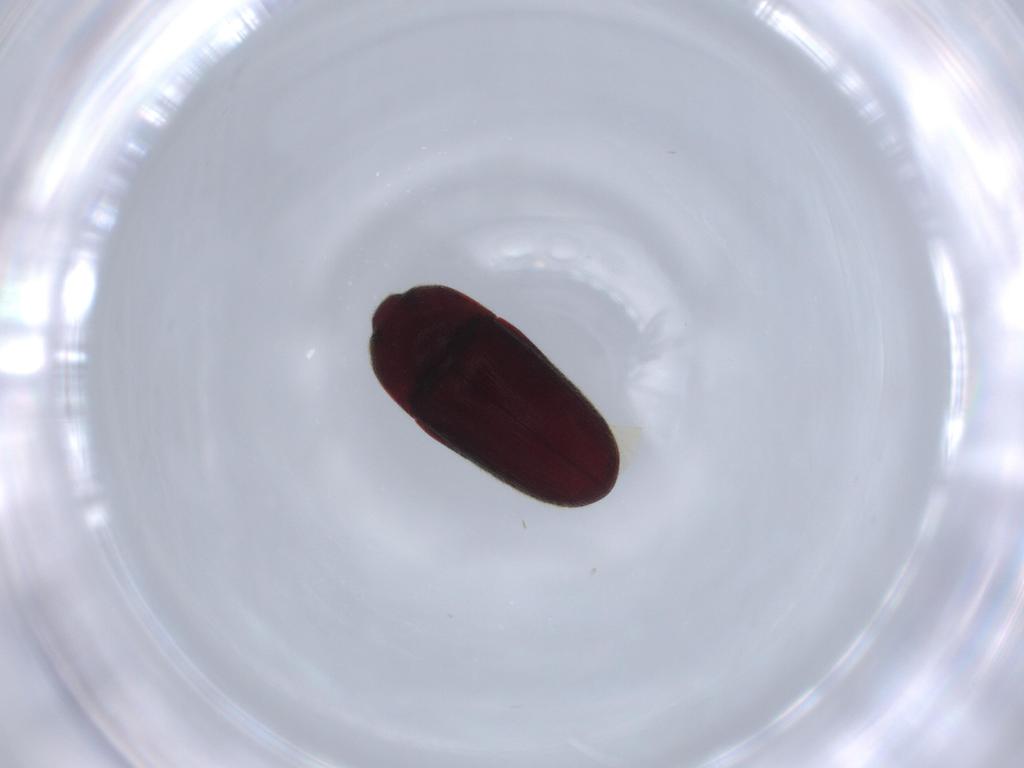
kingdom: Animalia
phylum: Arthropoda
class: Insecta
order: Coleoptera
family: Throscidae
